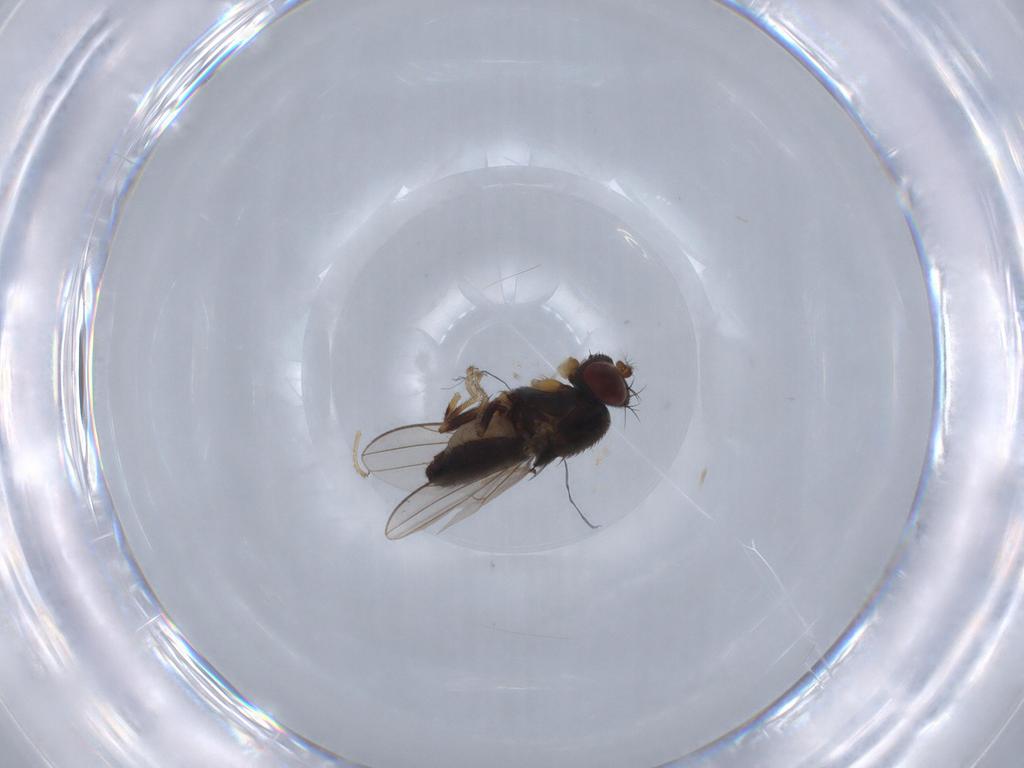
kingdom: Animalia
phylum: Arthropoda
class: Insecta
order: Diptera
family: Chloropidae
